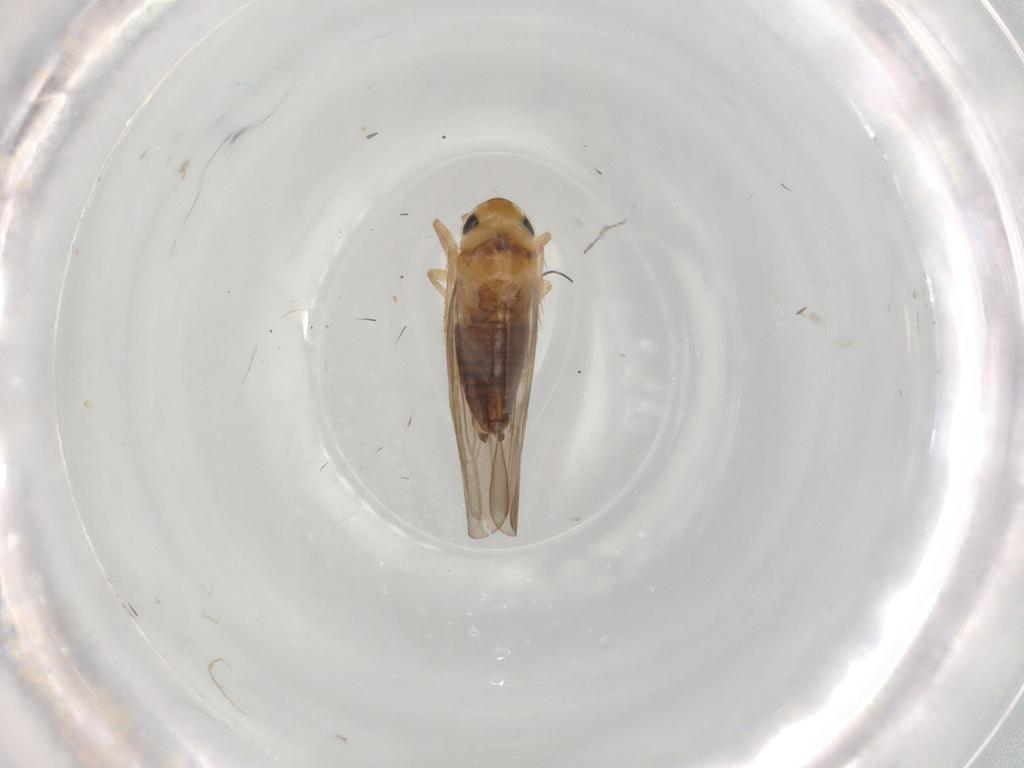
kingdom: Animalia
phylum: Arthropoda
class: Insecta
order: Hemiptera
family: Cicadellidae
